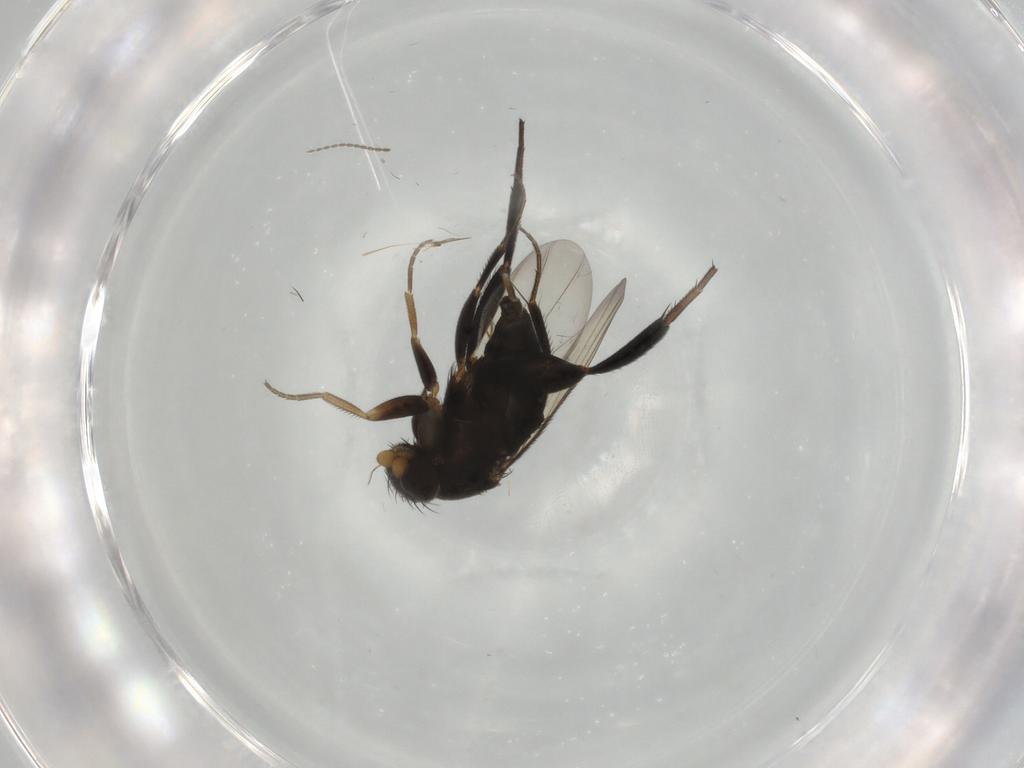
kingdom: Animalia
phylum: Arthropoda
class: Insecta
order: Diptera
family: Phoridae
